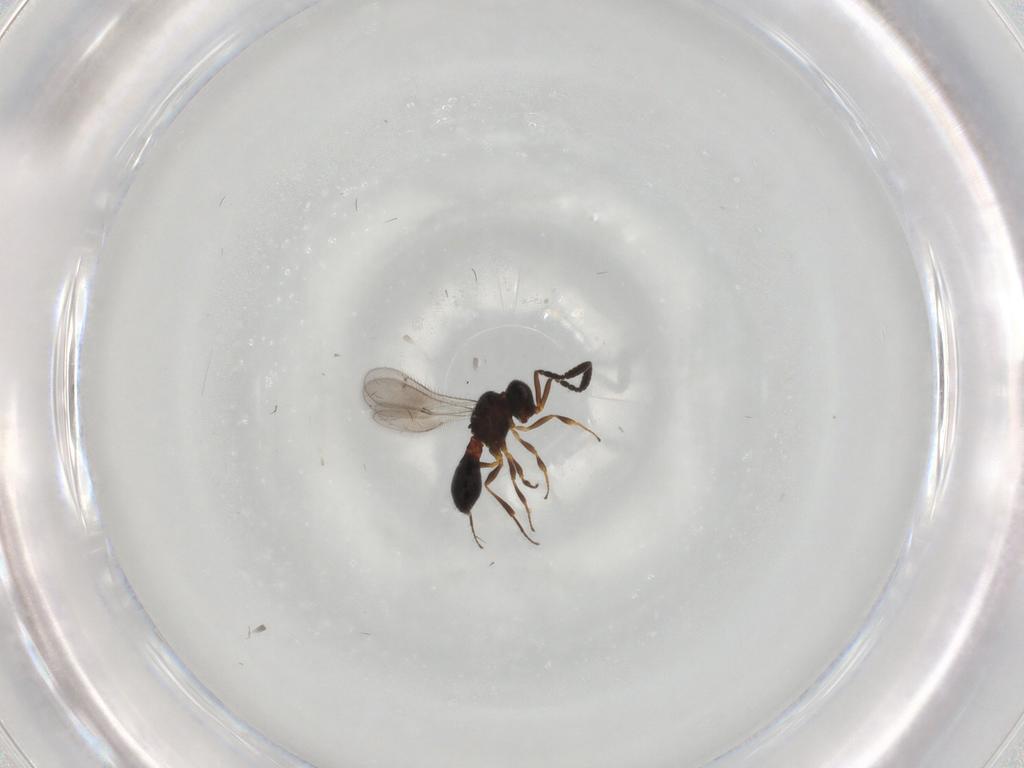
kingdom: Animalia
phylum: Arthropoda
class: Insecta
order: Hymenoptera
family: Scelionidae
